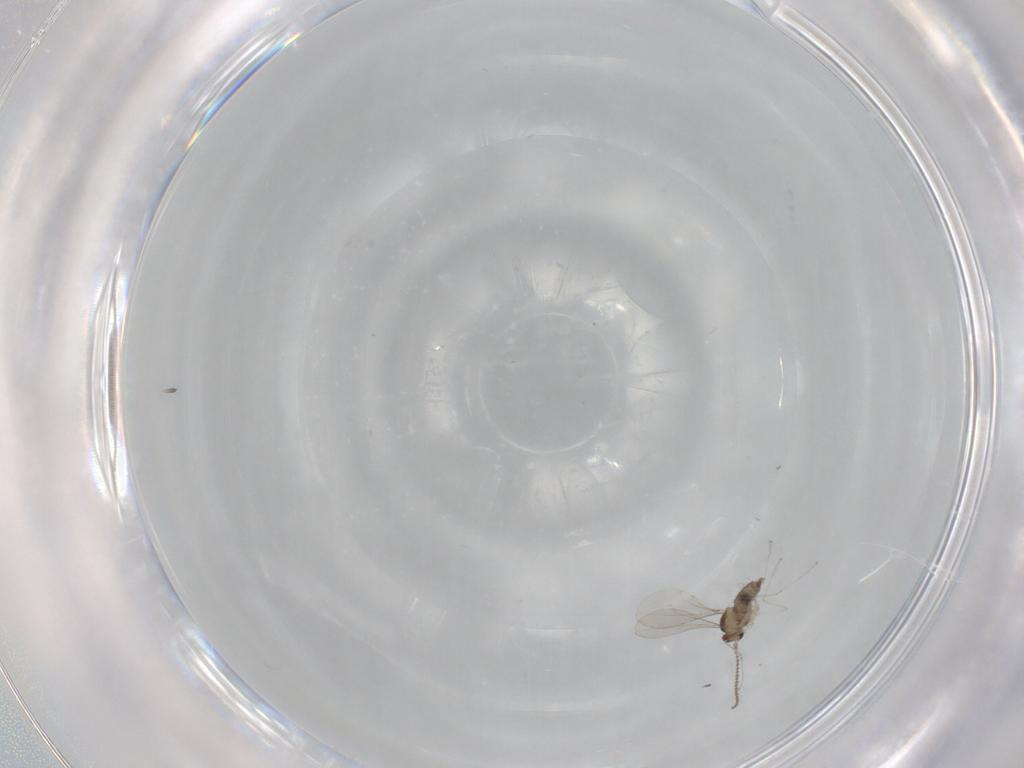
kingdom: Animalia
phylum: Arthropoda
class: Insecta
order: Diptera
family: Cecidomyiidae
